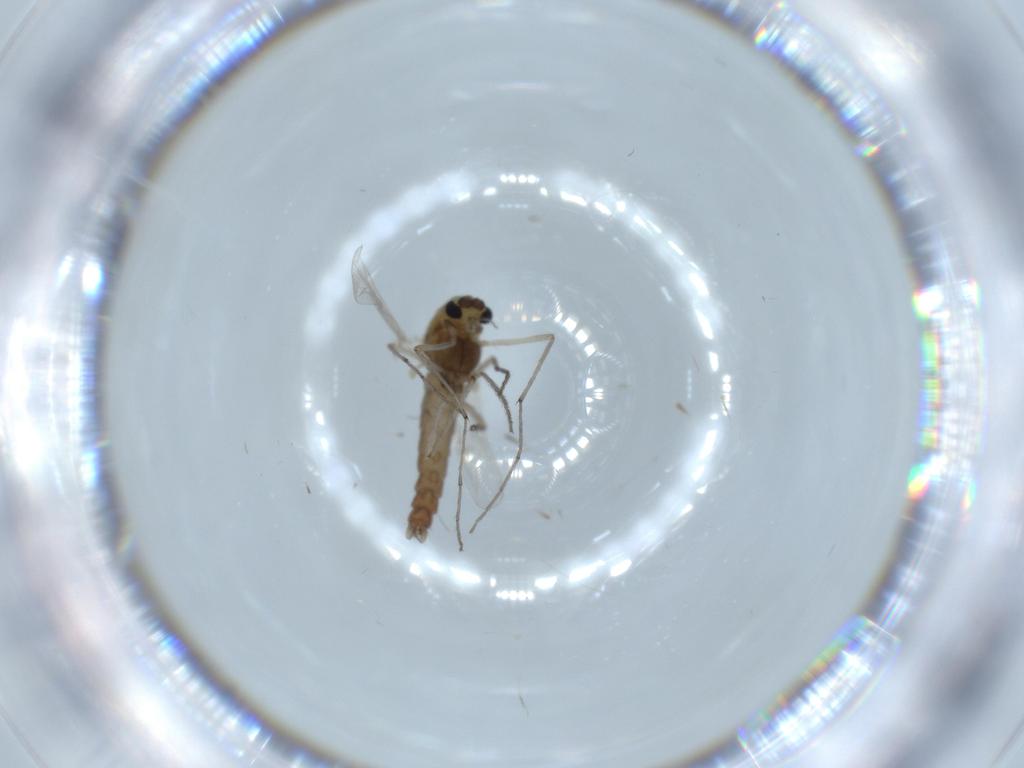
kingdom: Animalia
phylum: Arthropoda
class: Insecta
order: Diptera
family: Chironomidae
